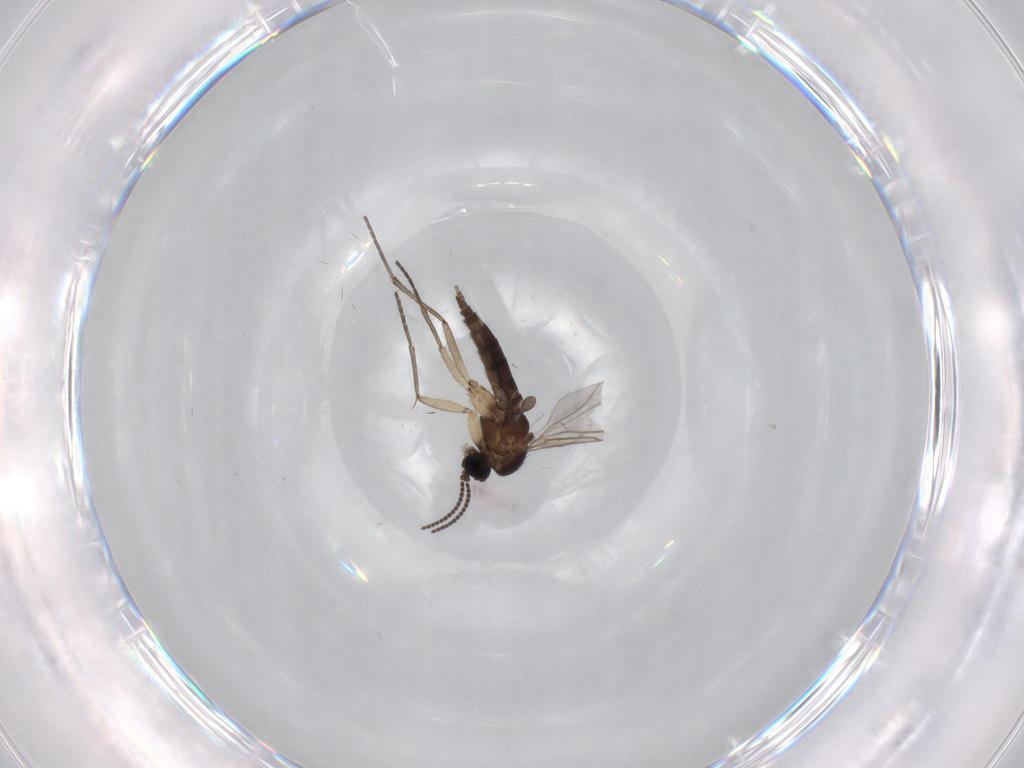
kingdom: Animalia
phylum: Arthropoda
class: Insecta
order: Diptera
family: Sciaridae
